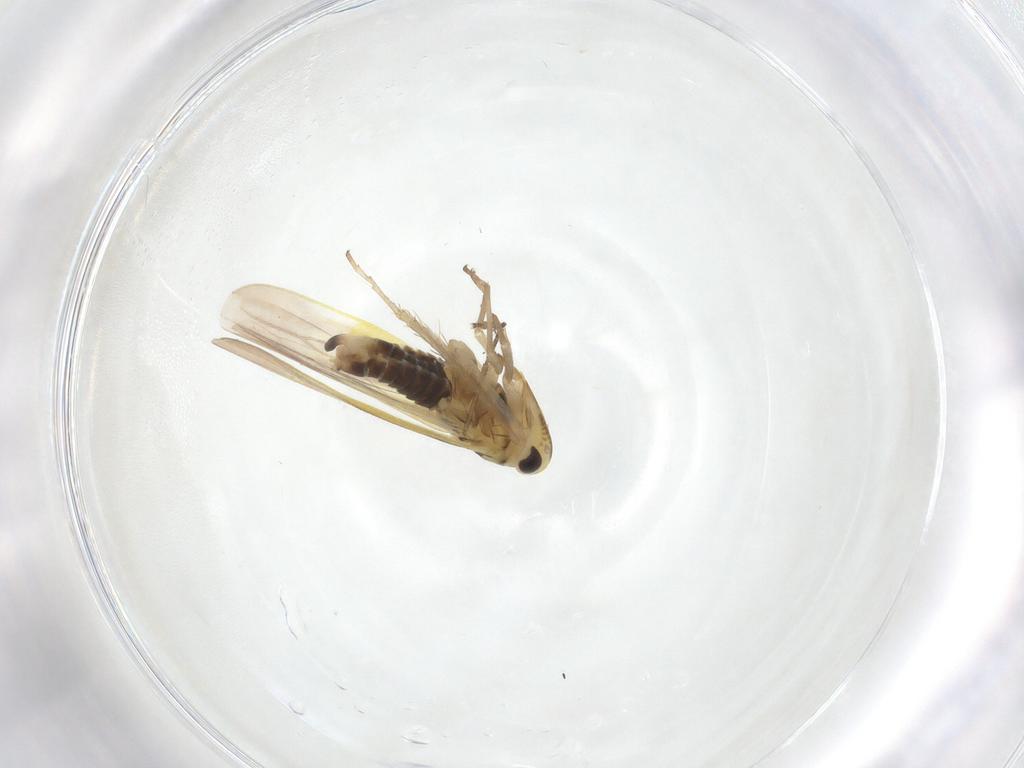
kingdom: Animalia
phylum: Arthropoda
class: Insecta
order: Hemiptera
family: Cicadellidae
